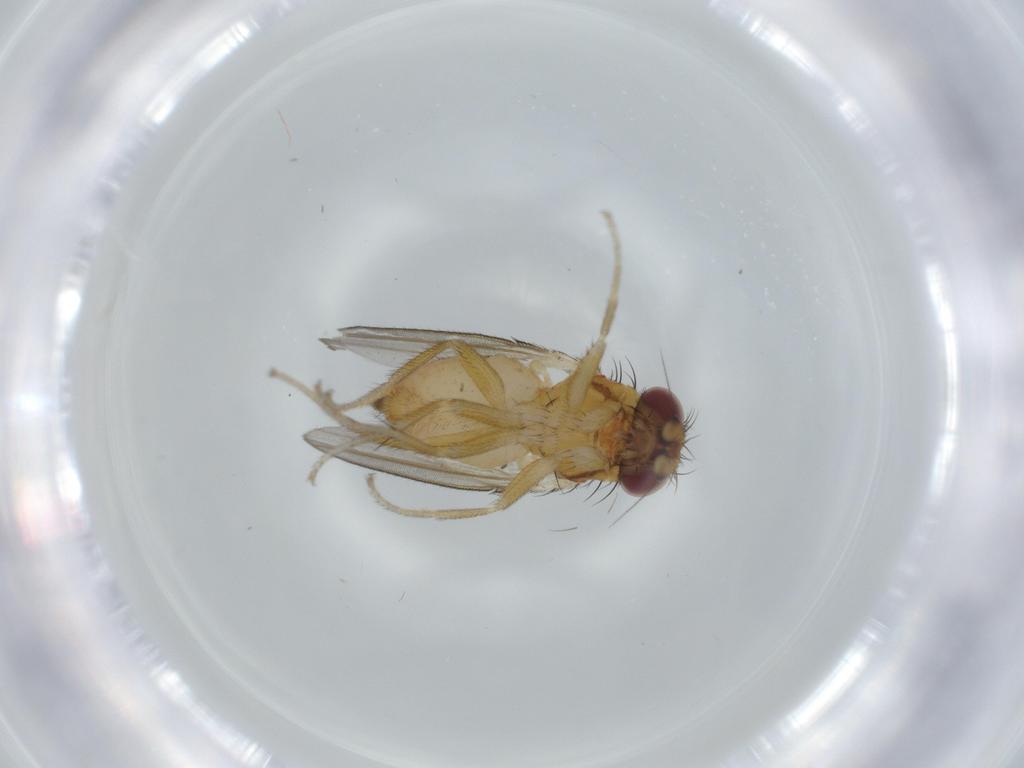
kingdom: Animalia
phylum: Arthropoda
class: Insecta
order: Diptera
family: Milichiidae
